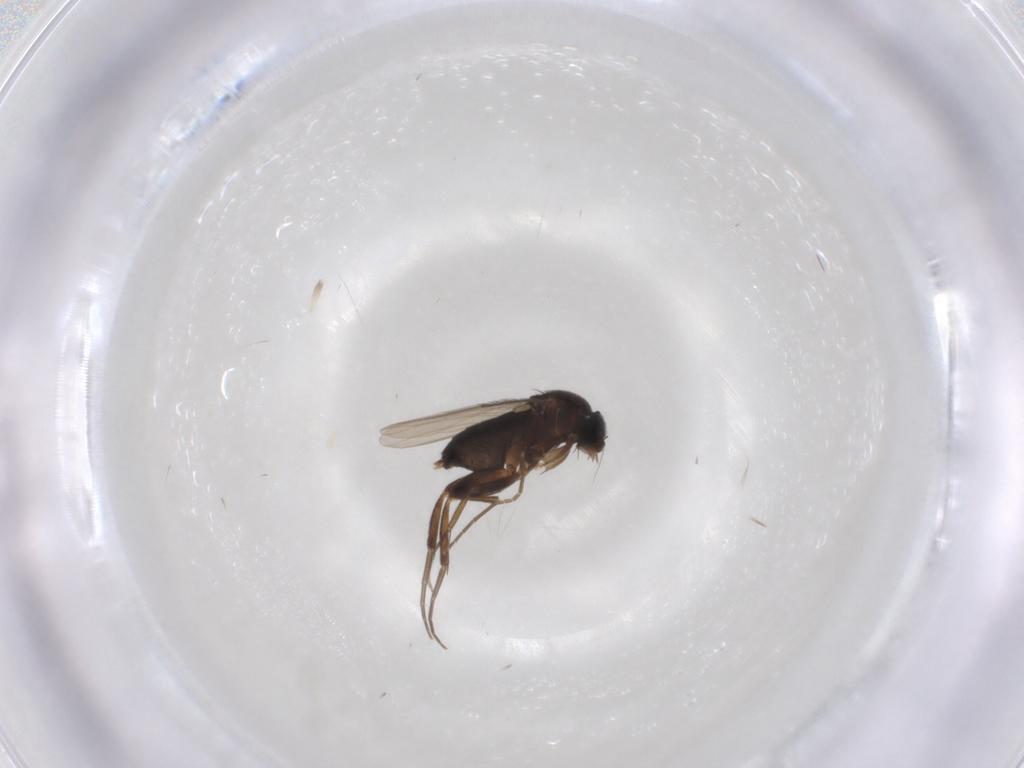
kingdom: Animalia
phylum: Arthropoda
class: Insecta
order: Diptera
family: Phoridae
